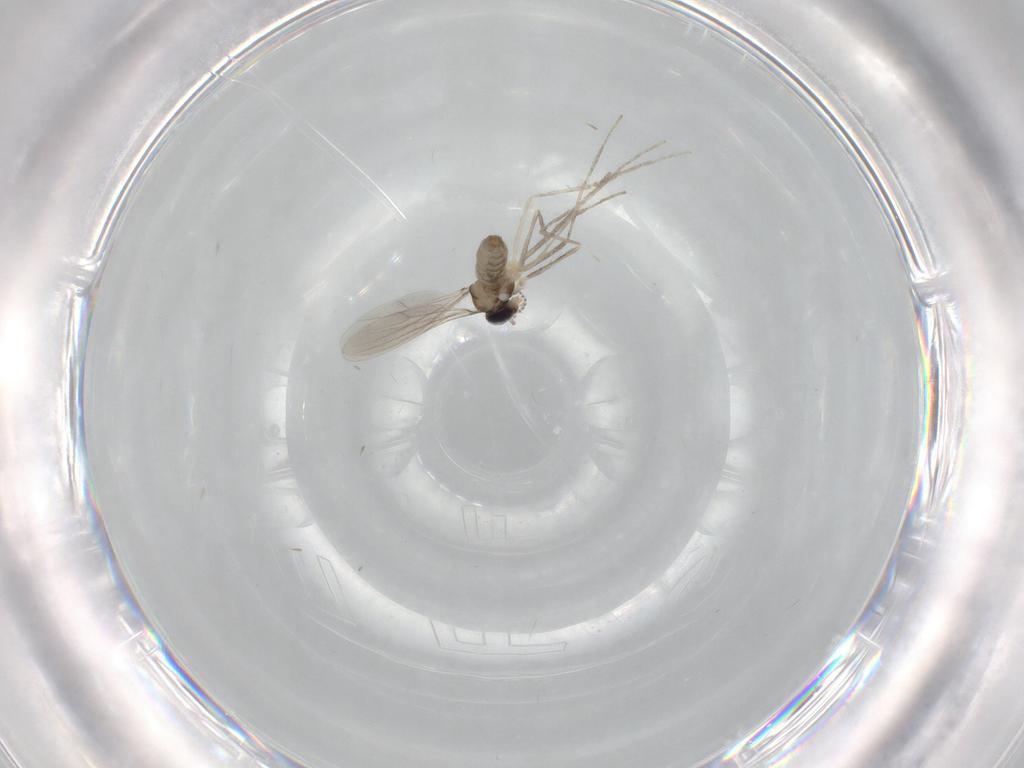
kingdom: Animalia
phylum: Arthropoda
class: Insecta
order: Diptera
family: Cecidomyiidae
